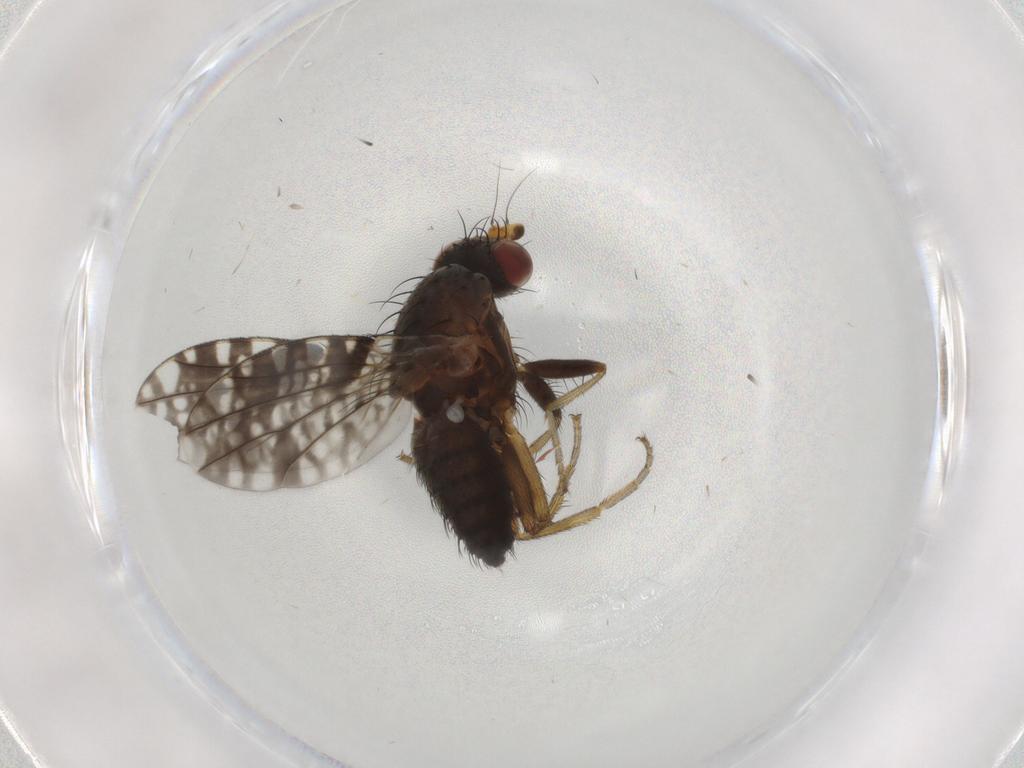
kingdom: Animalia
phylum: Arthropoda
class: Insecta
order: Diptera
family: Tephritidae
